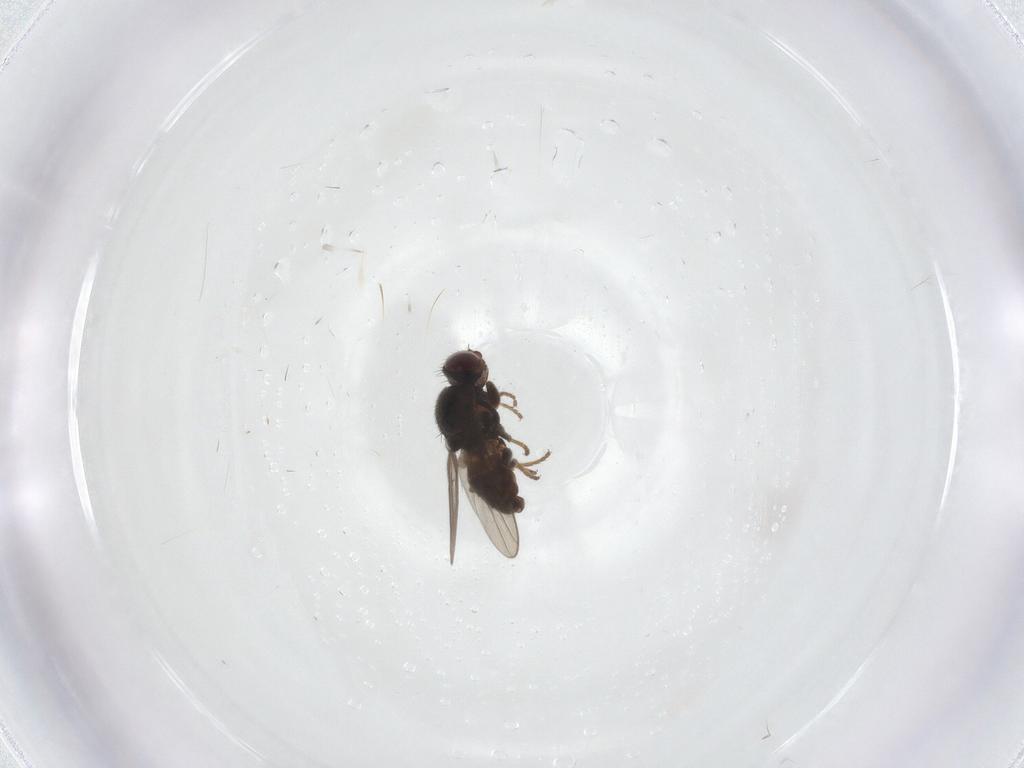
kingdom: Animalia
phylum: Arthropoda
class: Insecta
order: Diptera
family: Chloropidae
